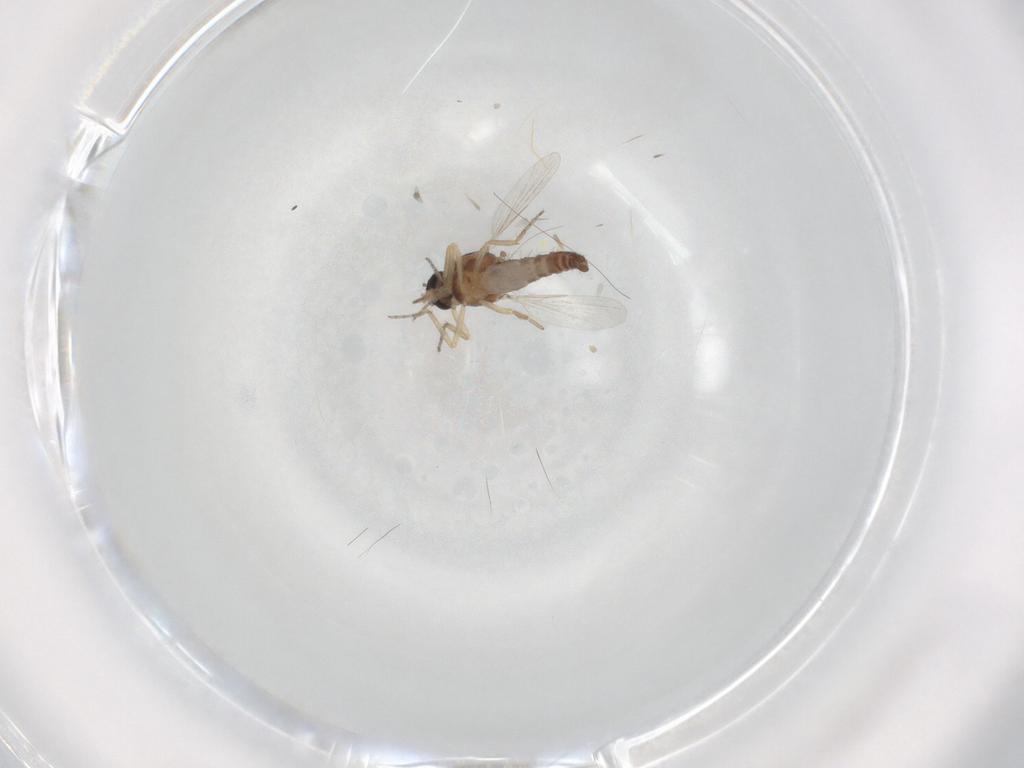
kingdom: Animalia
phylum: Arthropoda
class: Insecta
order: Diptera
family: Ceratopogonidae
